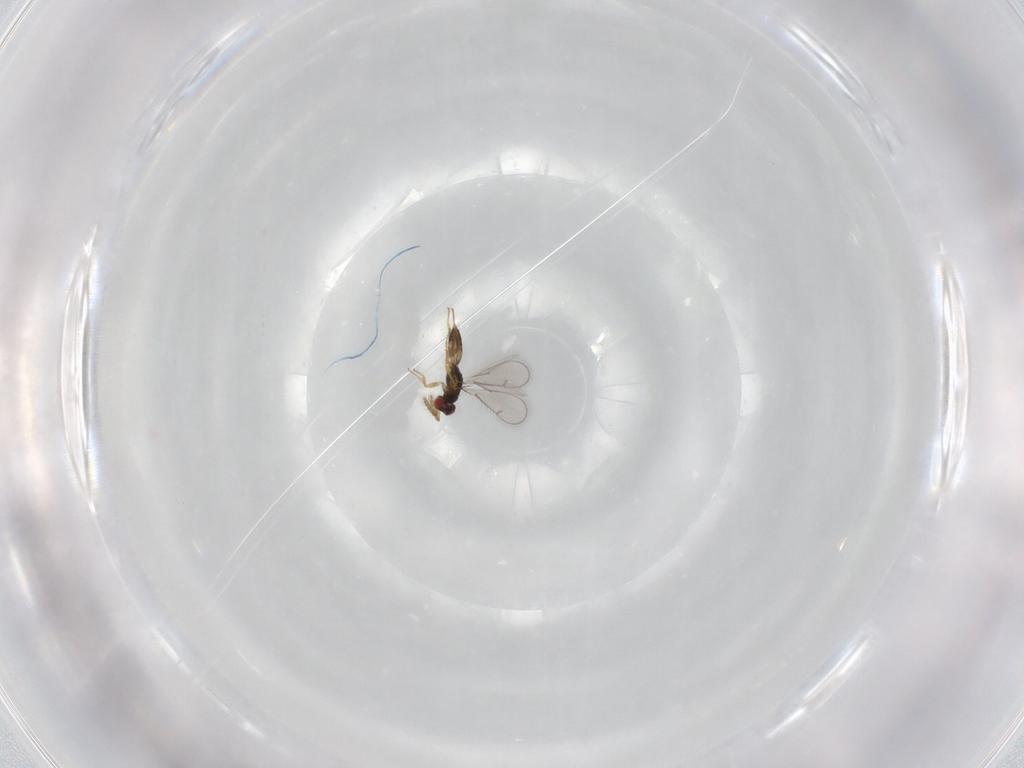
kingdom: Animalia
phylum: Arthropoda
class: Insecta
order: Hymenoptera
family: Eulophidae
